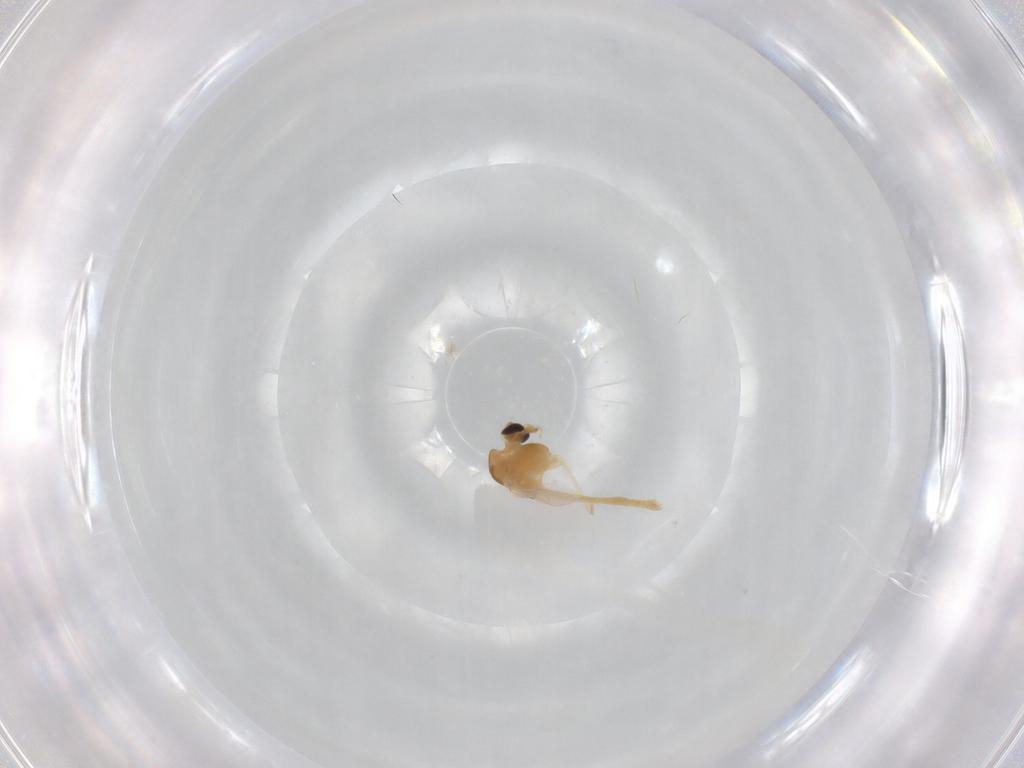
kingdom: Animalia
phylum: Arthropoda
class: Insecta
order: Diptera
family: Chironomidae
